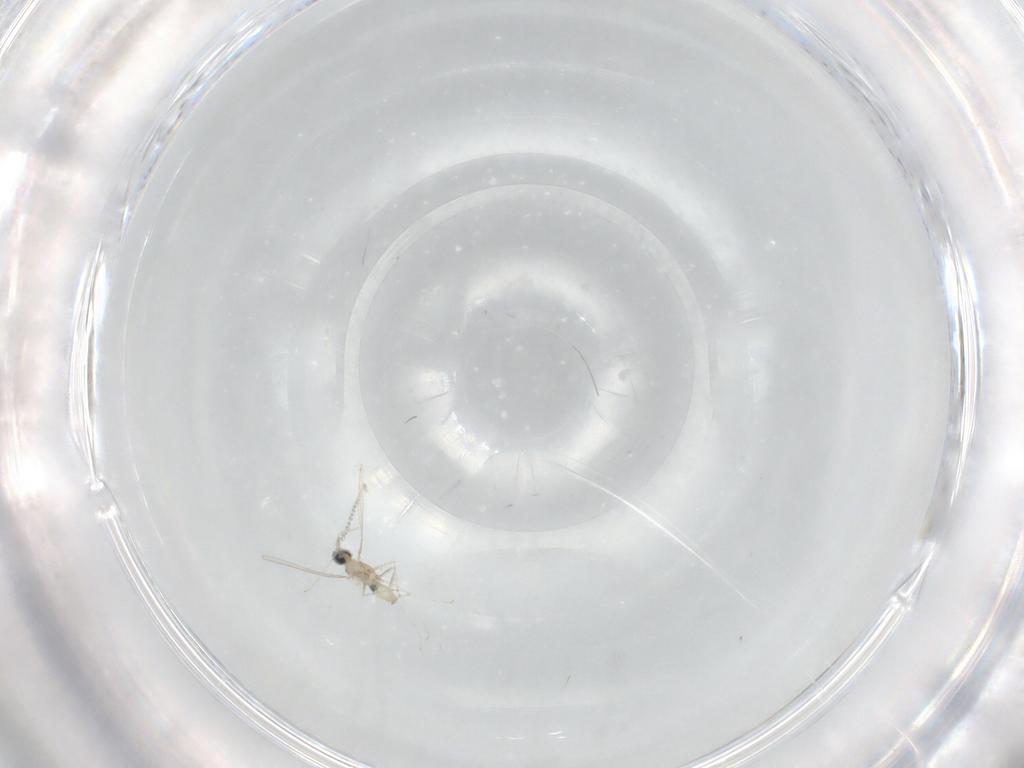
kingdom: Animalia
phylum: Arthropoda
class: Insecta
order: Diptera
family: Cecidomyiidae
